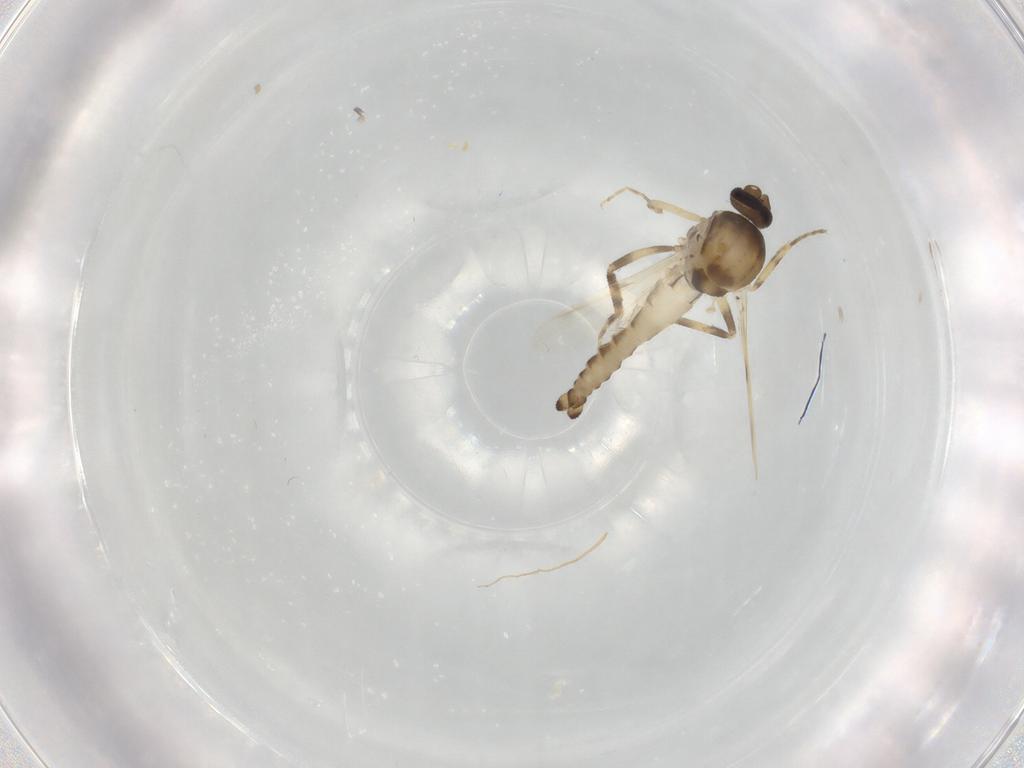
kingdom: Animalia
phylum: Arthropoda
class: Insecta
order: Diptera
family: Ceratopogonidae
